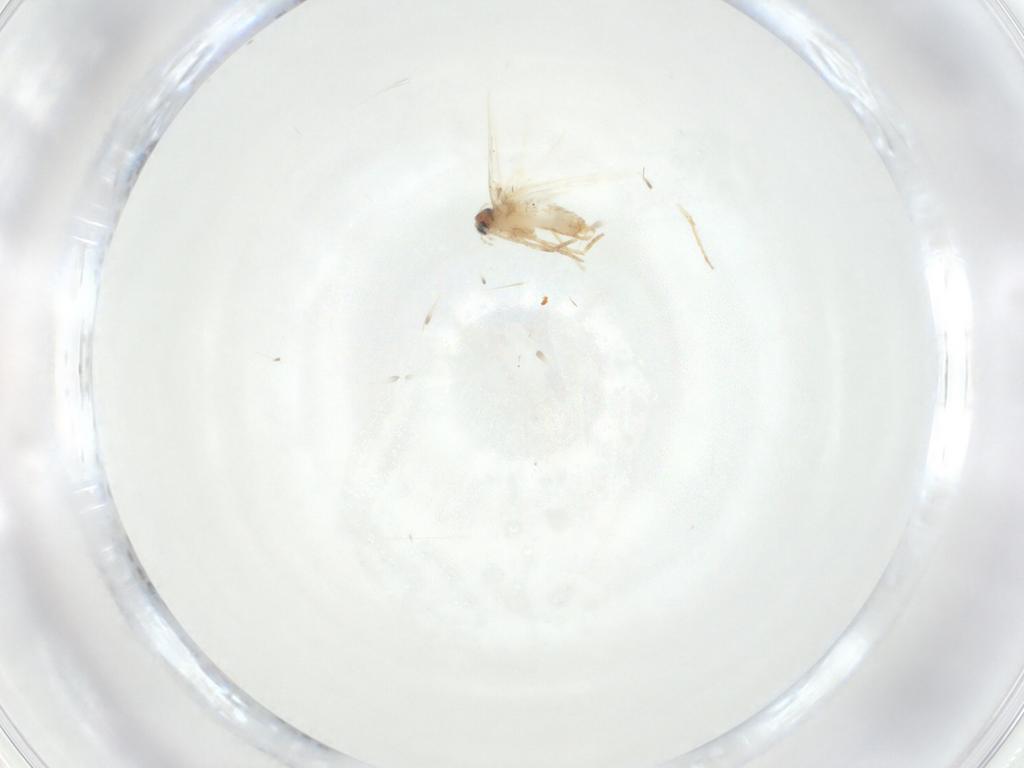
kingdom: Animalia
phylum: Arthropoda
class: Insecta
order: Lepidoptera
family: Nepticulidae
